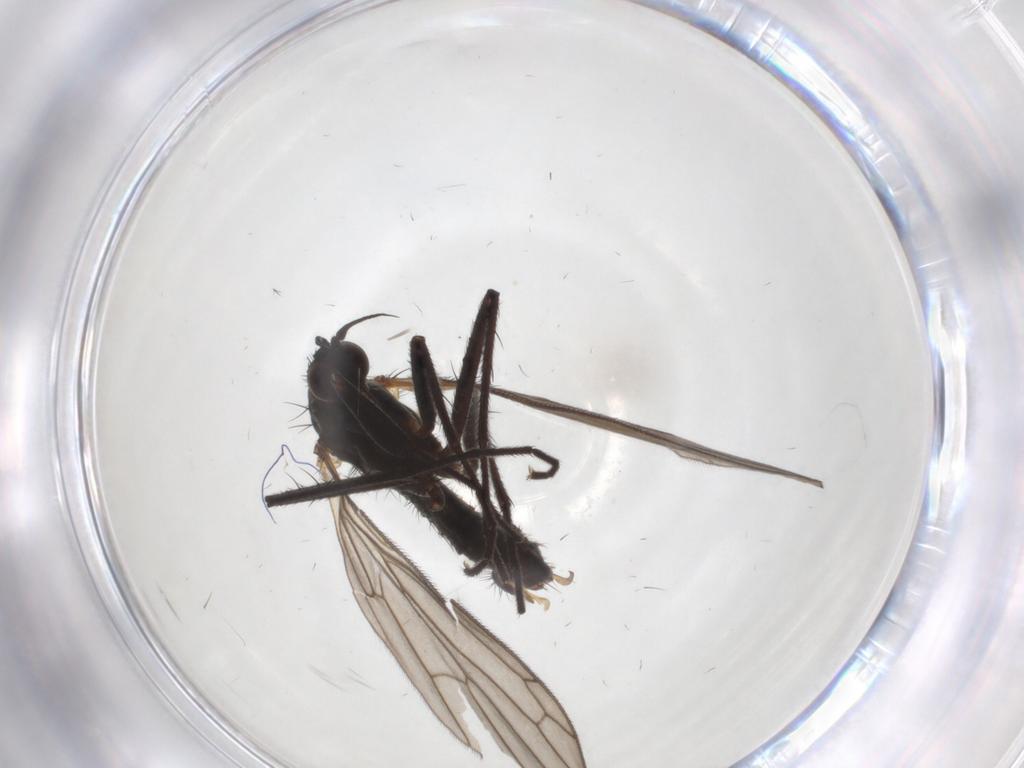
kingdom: Animalia
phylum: Arthropoda
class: Insecta
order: Diptera
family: Empididae
